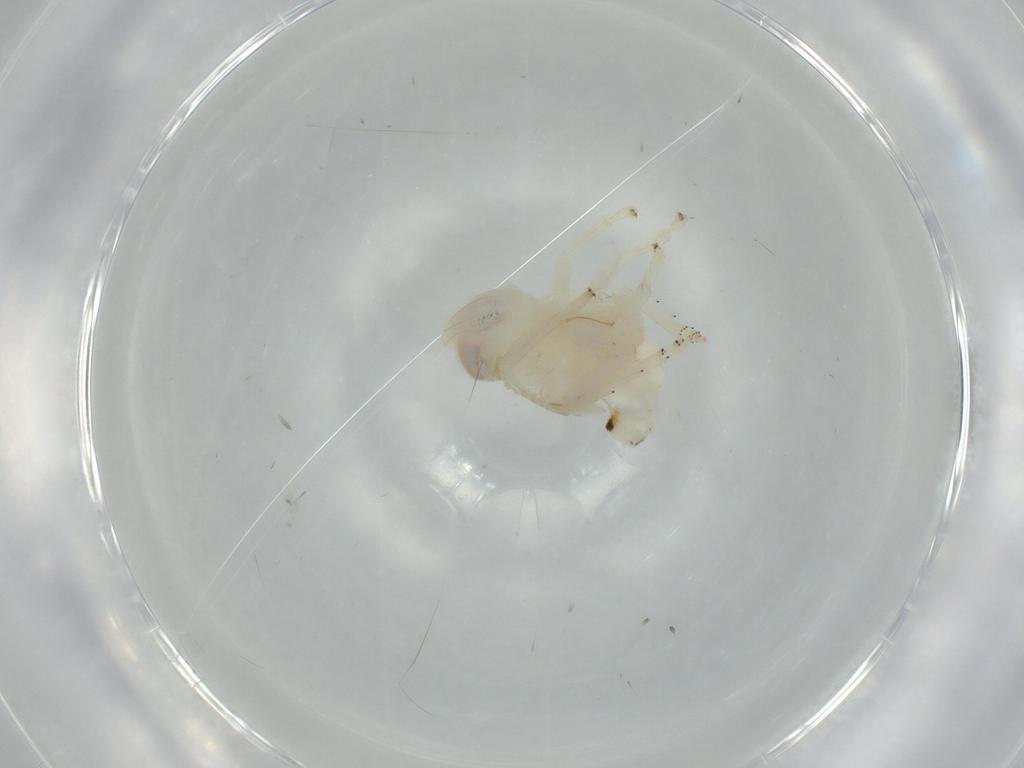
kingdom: Animalia
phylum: Arthropoda
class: Insecta
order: Hemiptera
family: Nogodinidae
